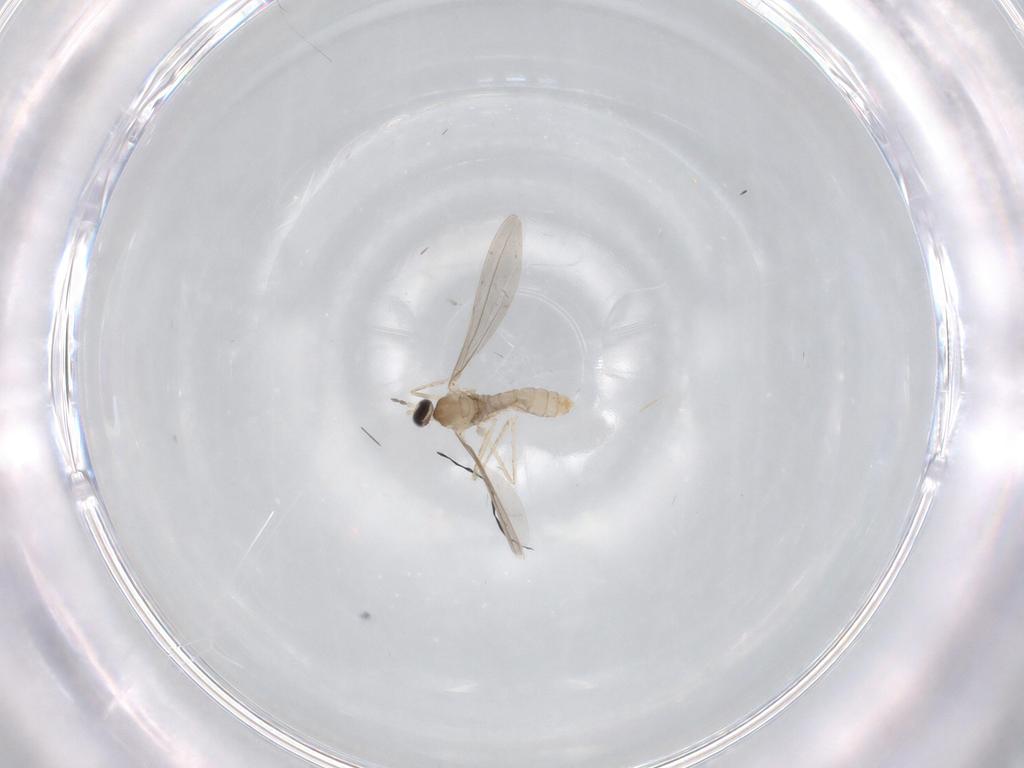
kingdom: Animalia
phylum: Arthropoda
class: Insecta
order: Diptera
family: Cecidomyiidae
